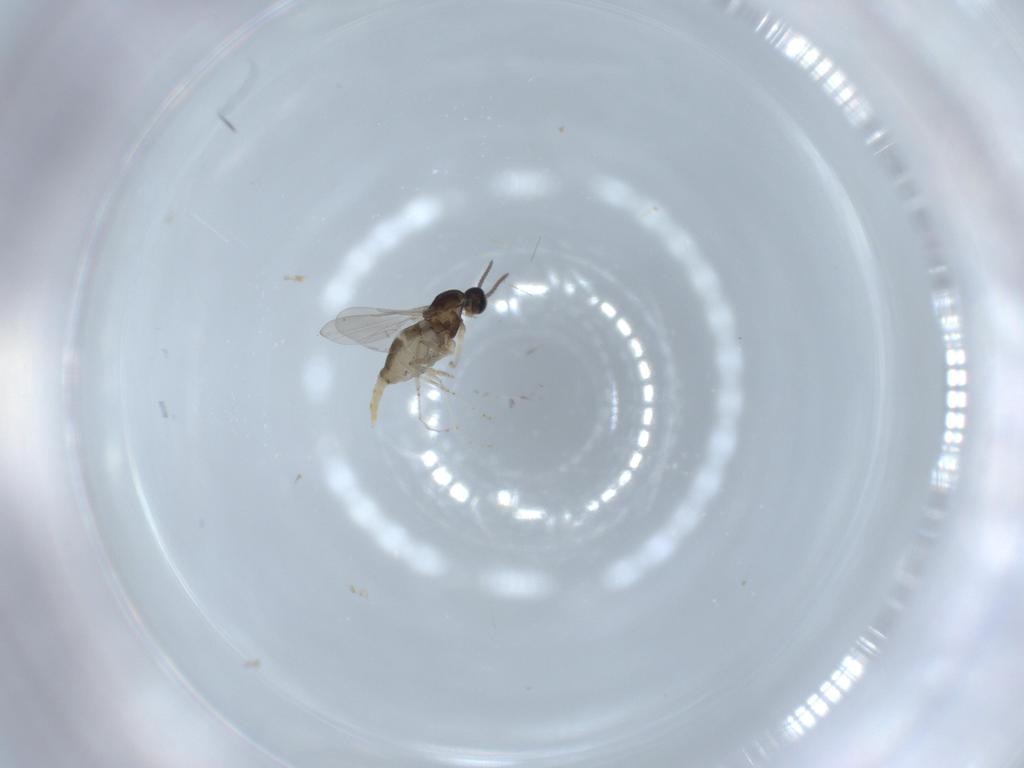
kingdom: Animalia
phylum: Arthropoda
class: Insecta
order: Diptera
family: Cecidomyiidae
